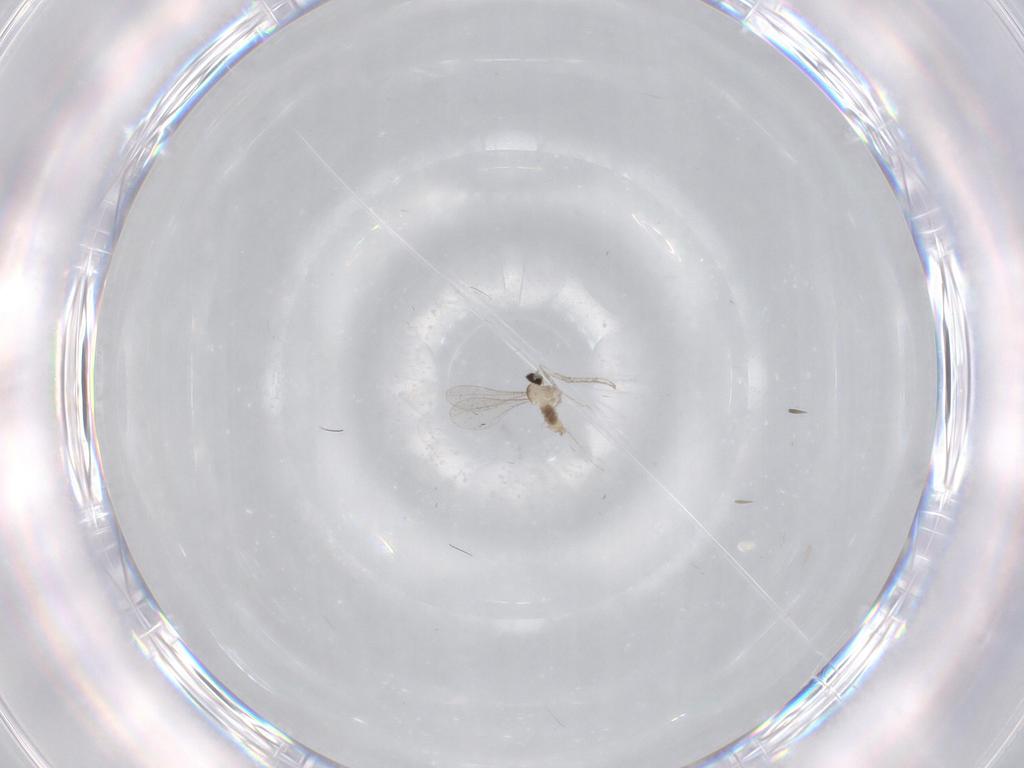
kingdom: Animalia
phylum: Arthropoda
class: Insecta
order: Diptera
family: Cecidomyiidae
